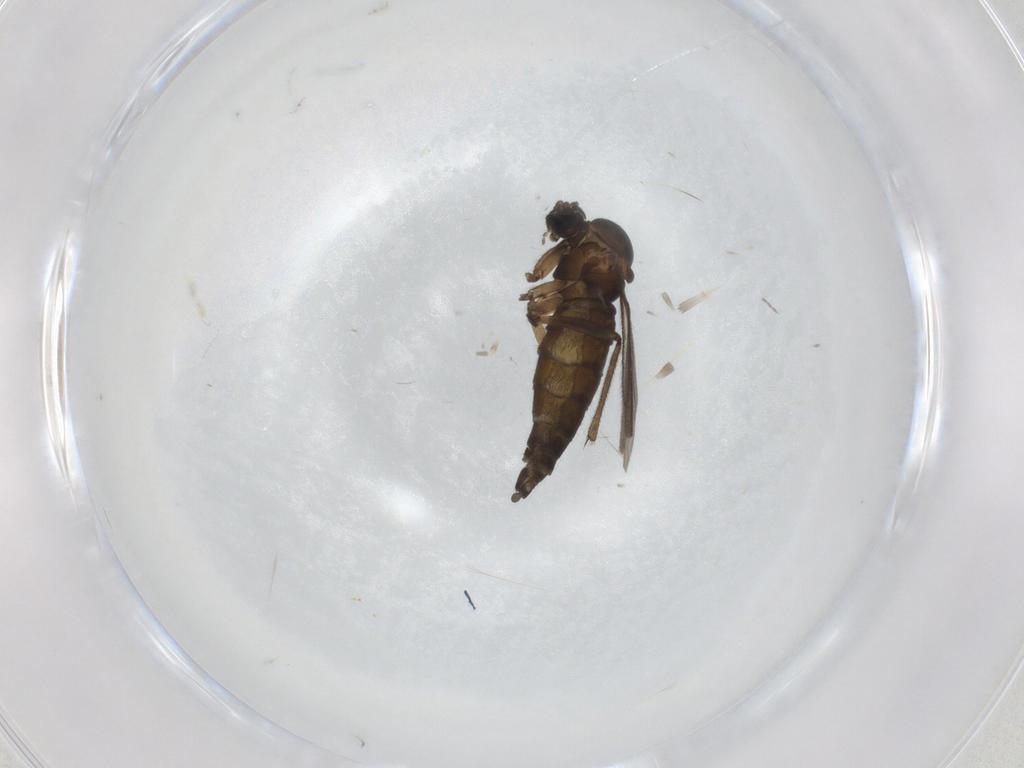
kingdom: Animalia
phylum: Arthropoda
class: Insecta
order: Diptera
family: Sciaridae
